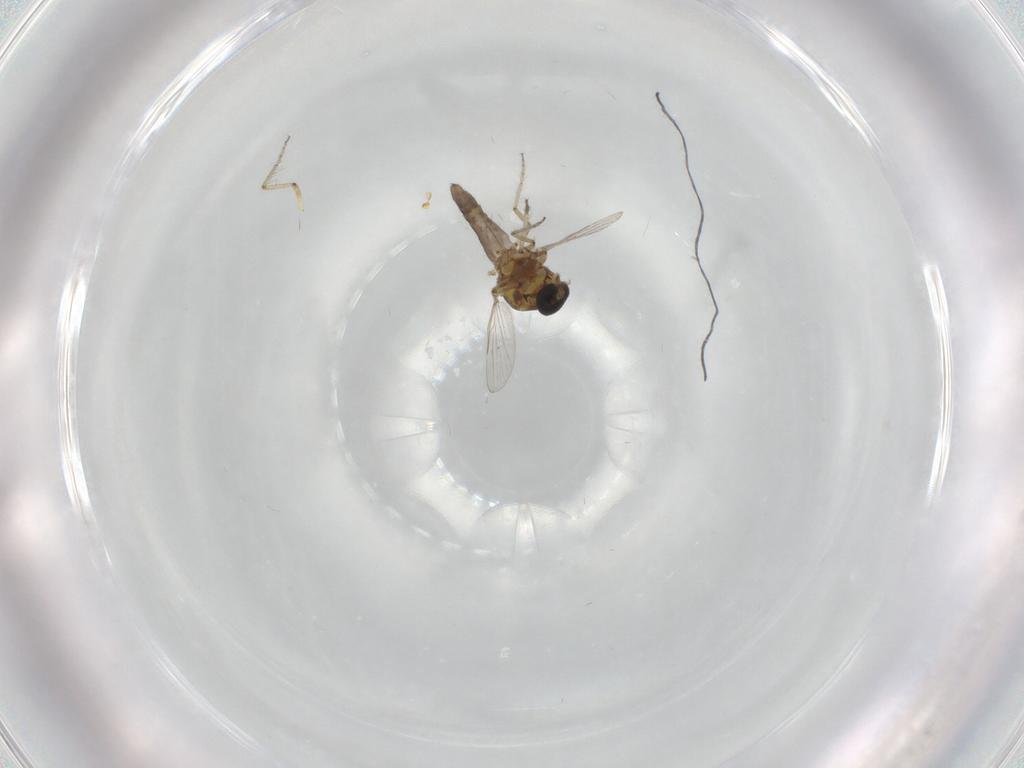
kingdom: Animalia
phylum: Arthropoda
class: Insecta
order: Diptera
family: Ceratopogonidae
